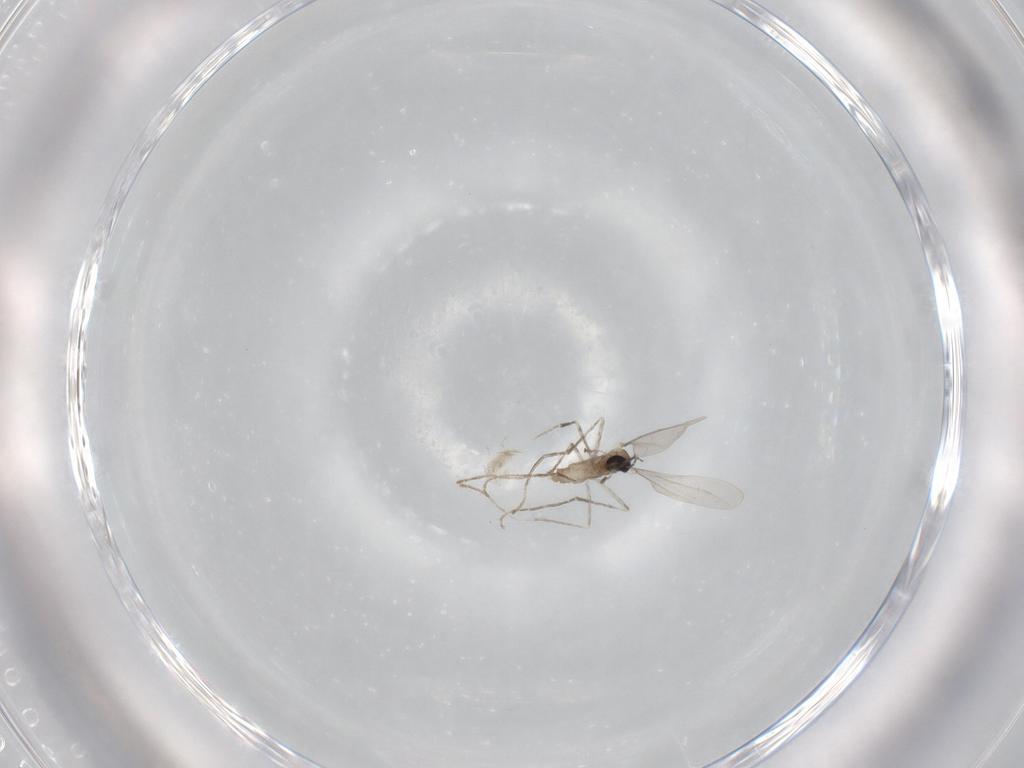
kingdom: Animalia
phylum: Arthropoda
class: Insecta
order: Diptera
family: Cecidomyiidae
